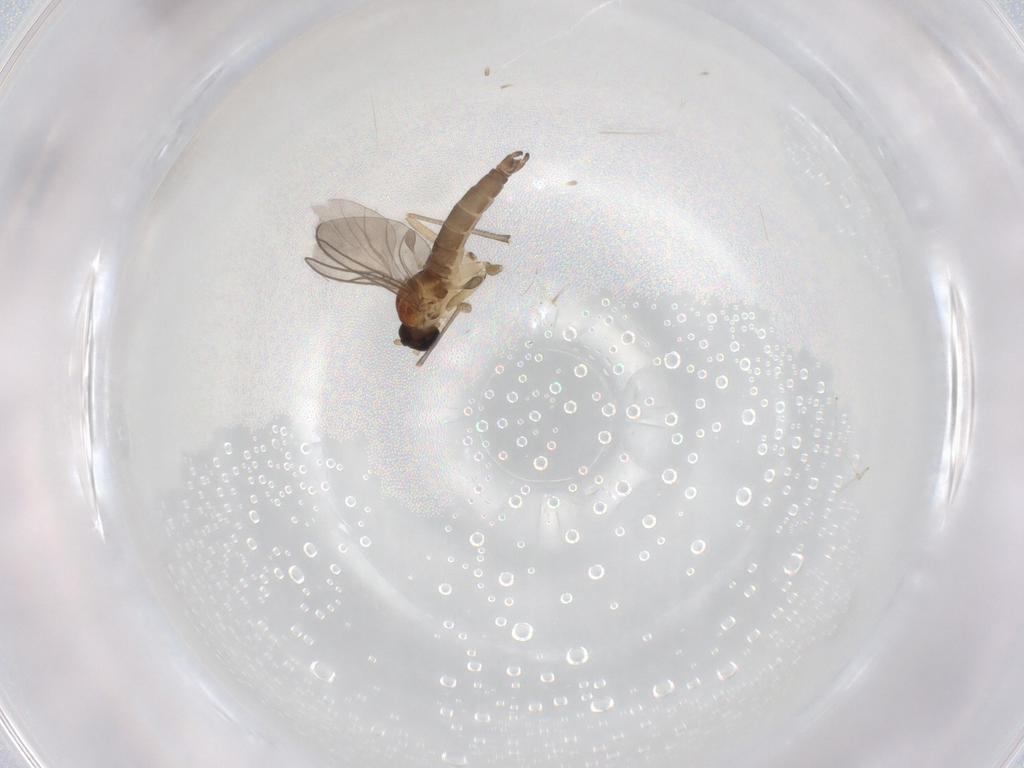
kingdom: Animalia
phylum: Arthropoda
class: Insecta
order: Diptera
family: Sciaridae
